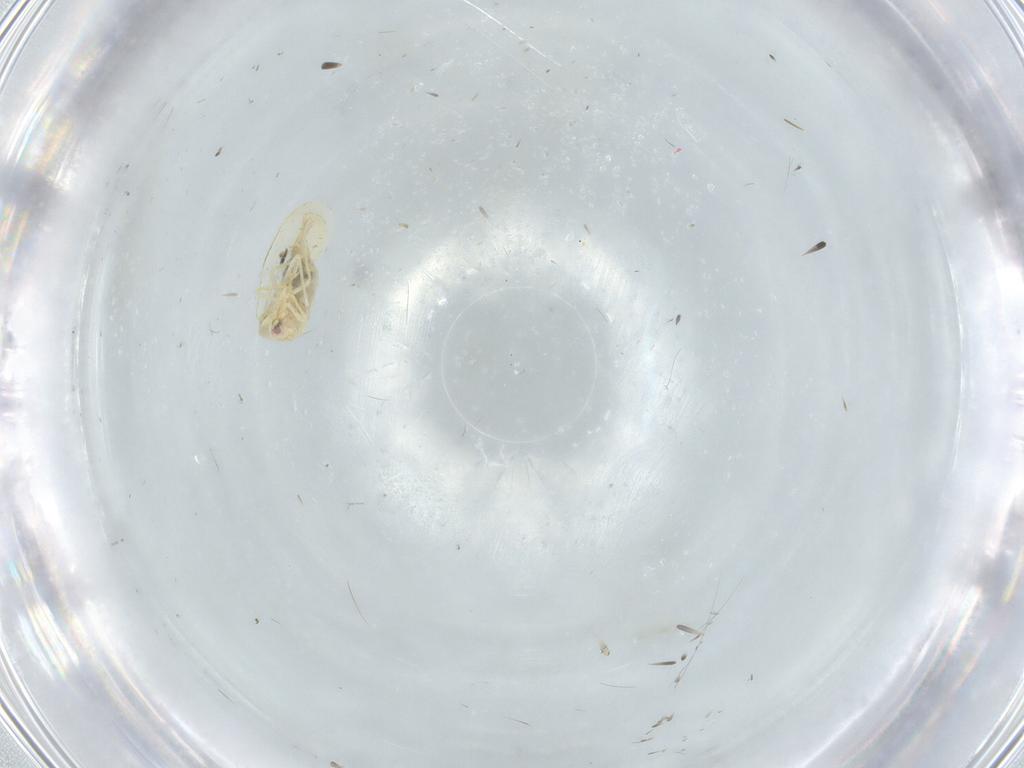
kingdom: Animalia
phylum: Arthropoda
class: Insecta
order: Hemiptera
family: Aleyrodidae
